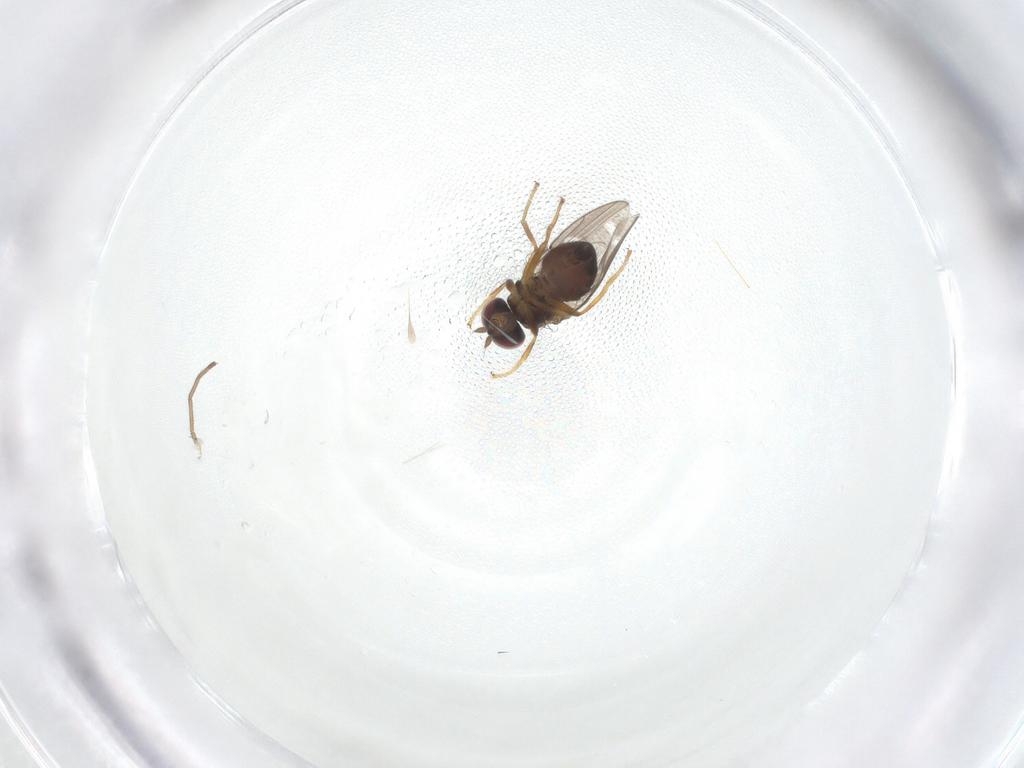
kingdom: Animalia
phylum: Arthropoda
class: Insecta
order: Diptera
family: Ephydridae
